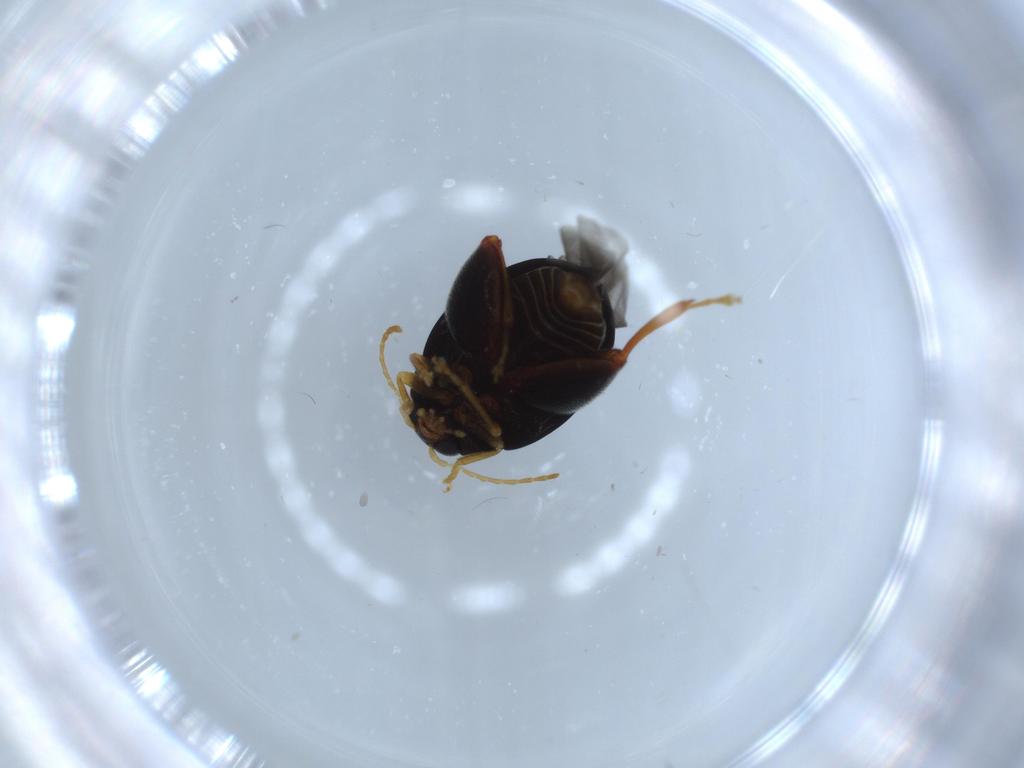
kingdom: Animalia
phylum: Arthropoda
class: Insecta
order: Coleoptera
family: Chrysomelidae
